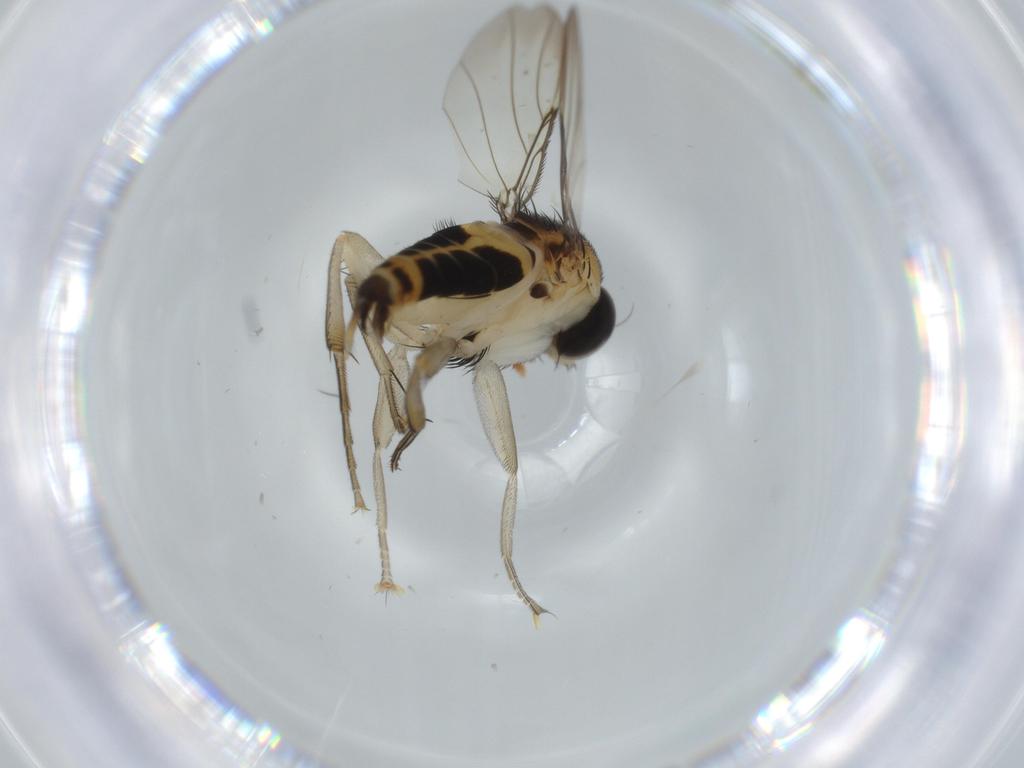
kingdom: Animalia
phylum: Arthropoda
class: Insecta
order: Diptera
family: Phoridae
